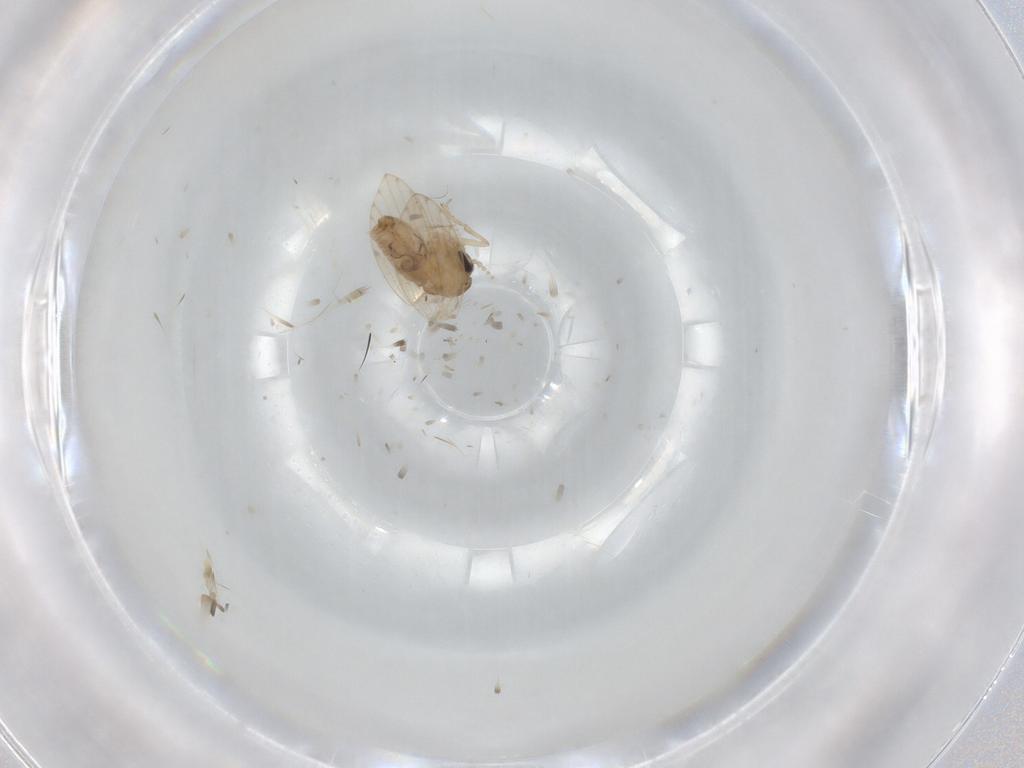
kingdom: Animalia
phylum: Arthropoda
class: Insecta
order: Diptera
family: Psychodidae
